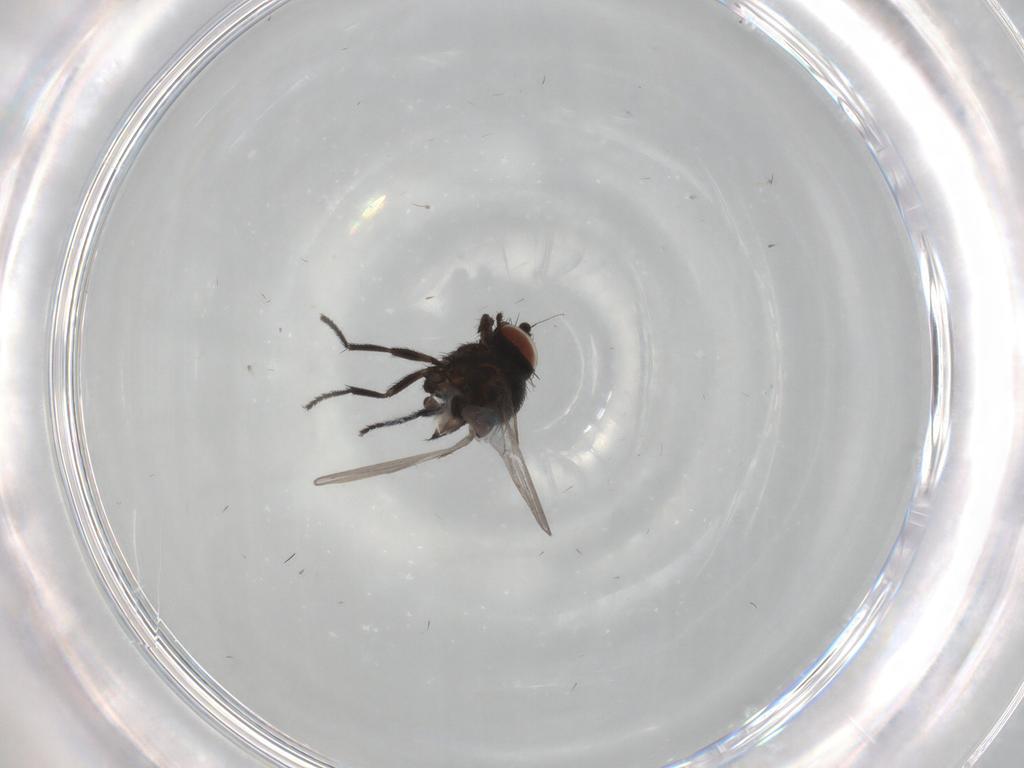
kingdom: Animalia
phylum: Arthropoda
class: Insecta
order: Diptera
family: Milichiidae
